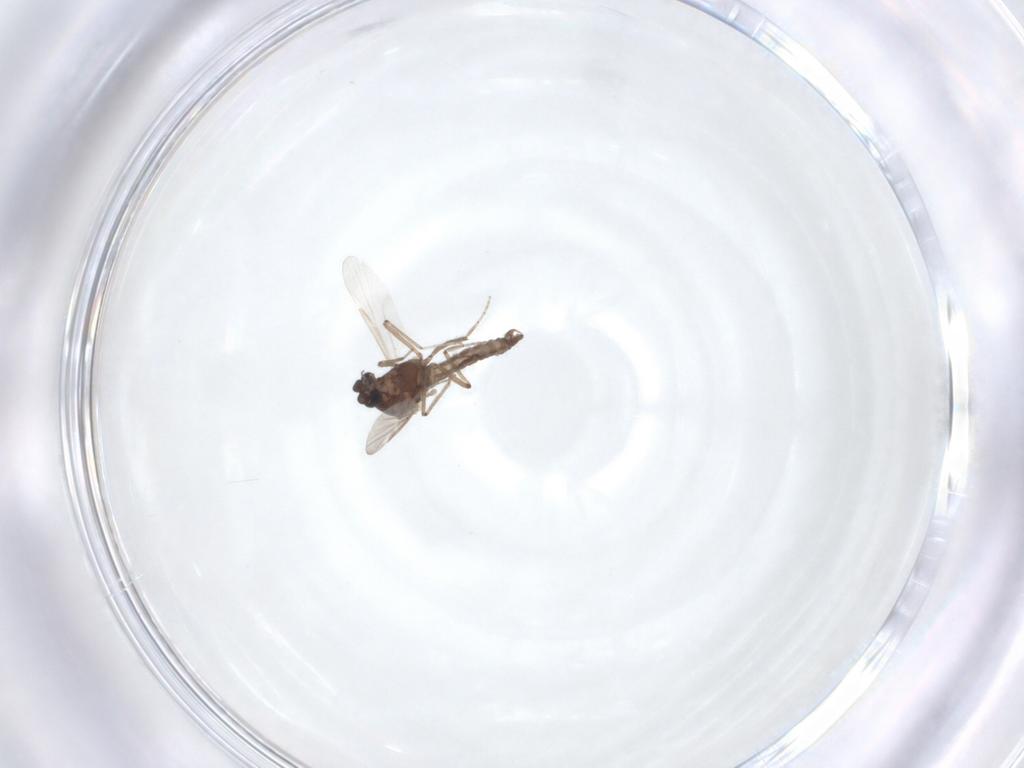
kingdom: Animalia
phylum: Arthropoda
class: Insecta
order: Diptera
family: Ceratopogonidae
